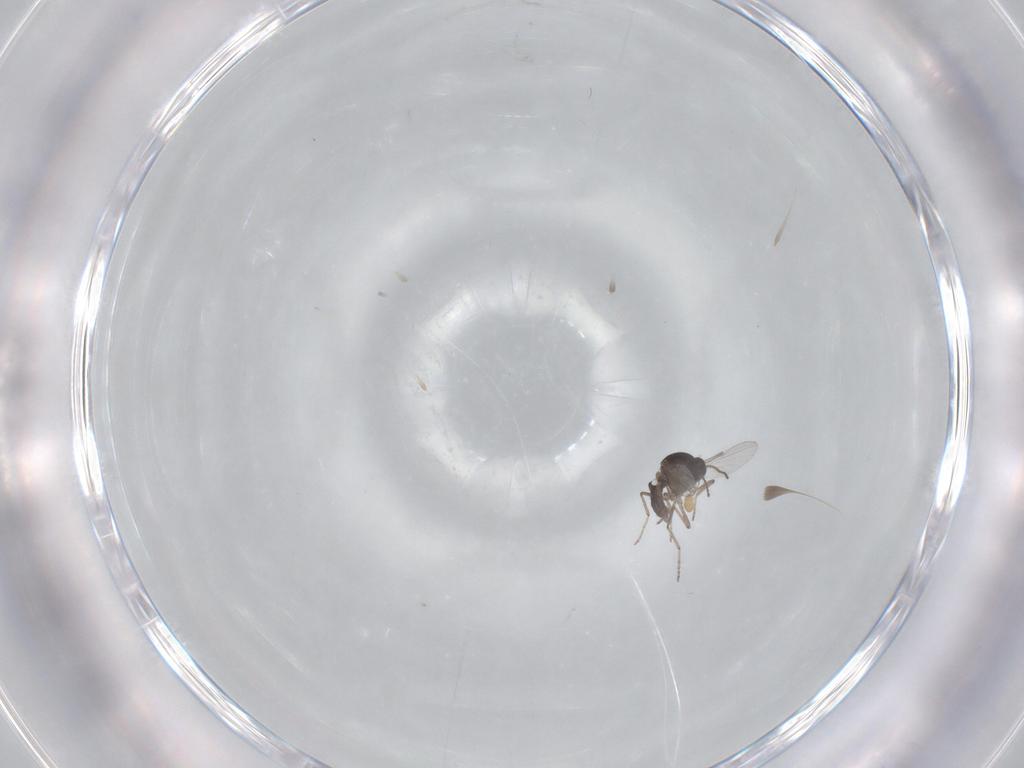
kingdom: Animalia
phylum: Arthropoda
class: Insecta
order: Diptera
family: Ceratopogonidae
